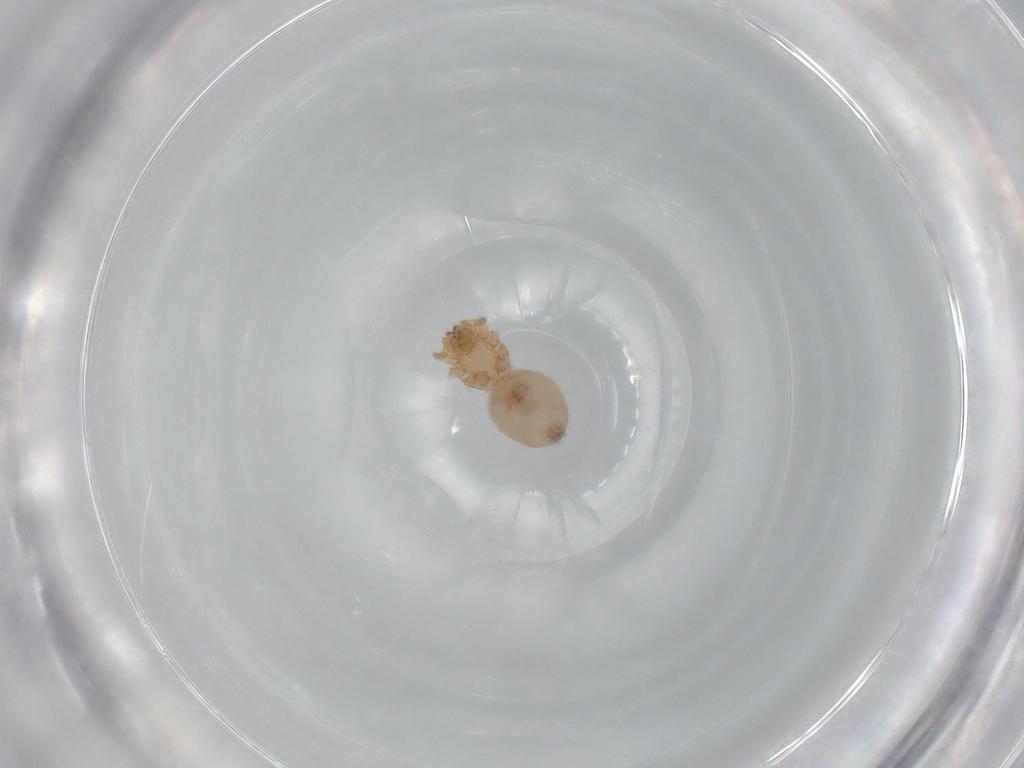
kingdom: Animalia
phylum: Arthropoda
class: Arachnida
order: Araneae
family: Oonopidae
